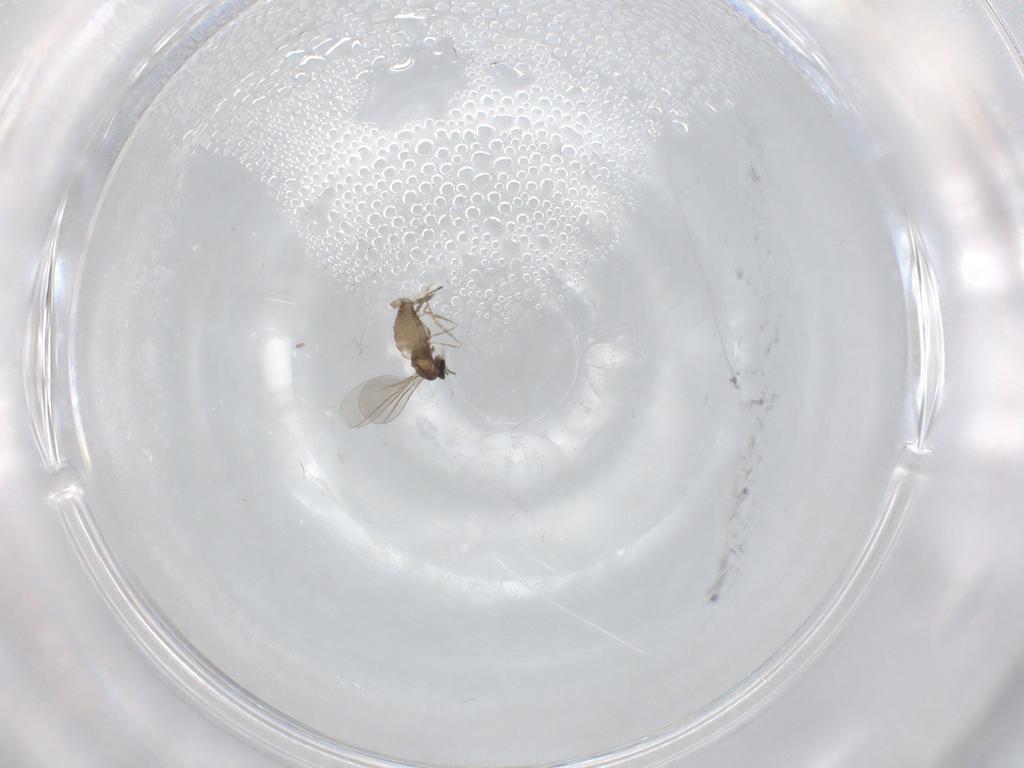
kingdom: Animalia
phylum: Arthropoda
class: Insecta
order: Diptera
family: Cecidomyiidae
